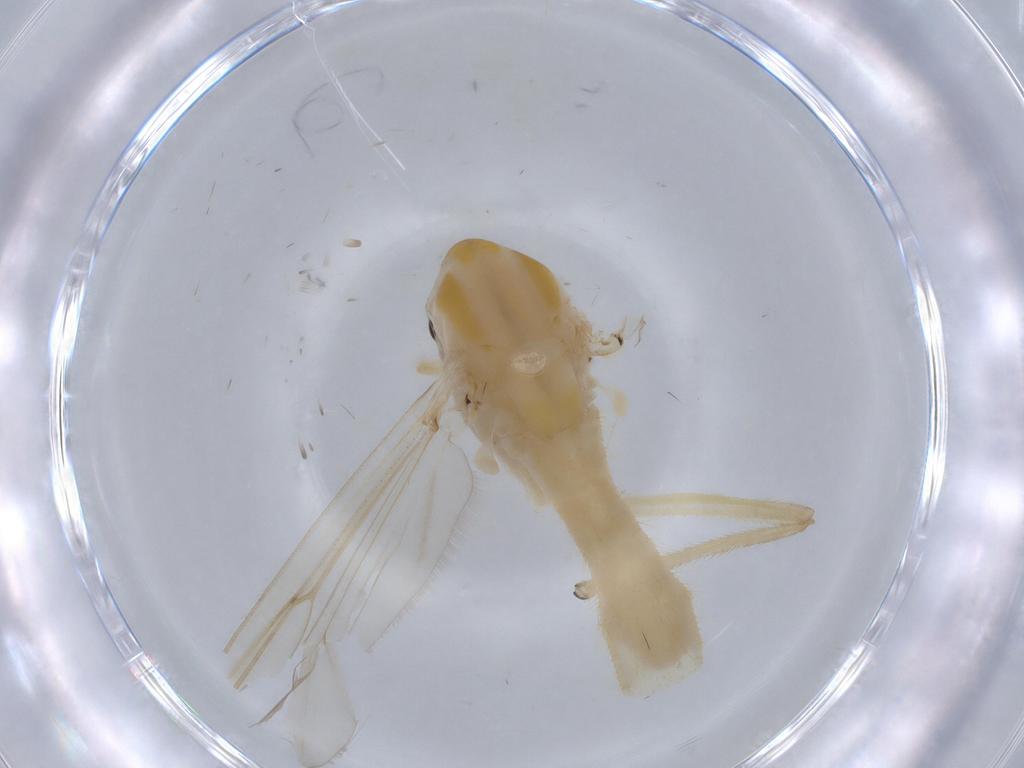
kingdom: Animalia
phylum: Arthropoda
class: Insecta
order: Diptera
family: Chironomidae
